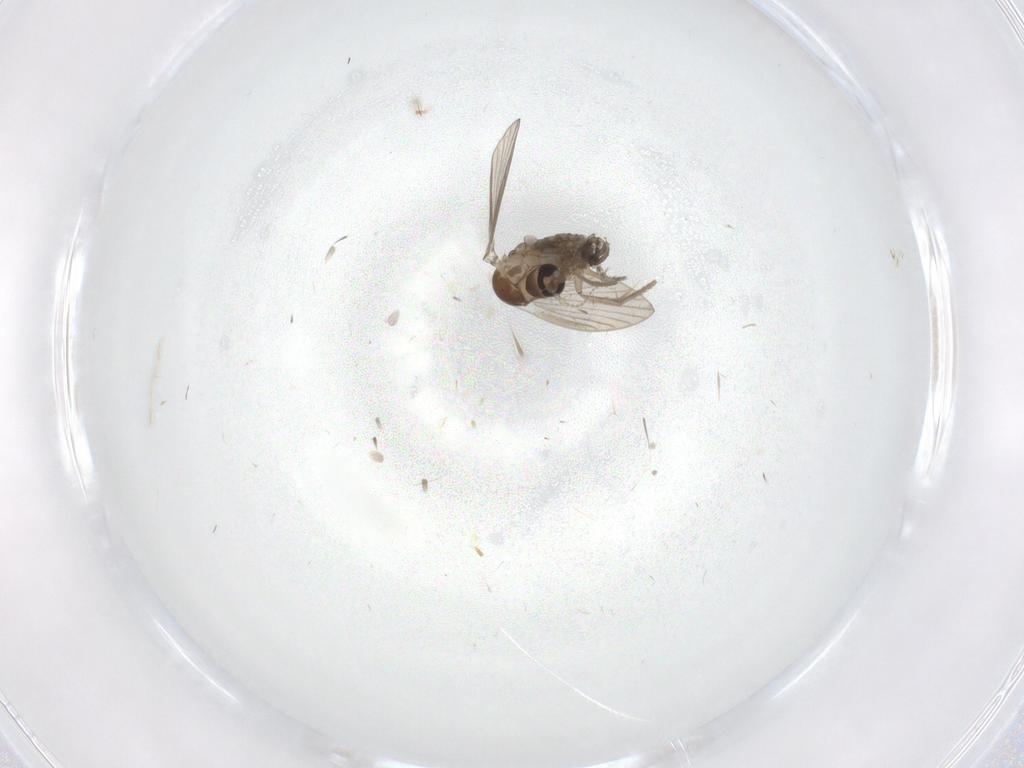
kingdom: Animalia
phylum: Arthropoda
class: Insecta
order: Diptera
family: Psychodidae
